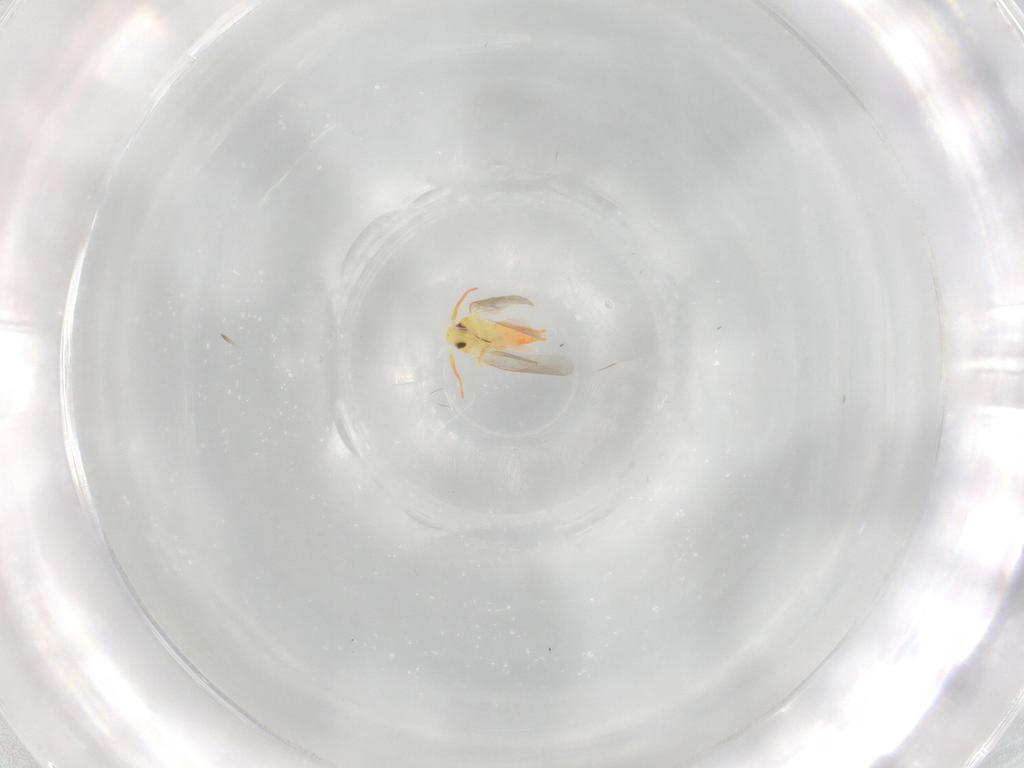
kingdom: Animalia
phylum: Arthropoda
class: Insecta
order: Hemiptera
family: Aleyrodidae
